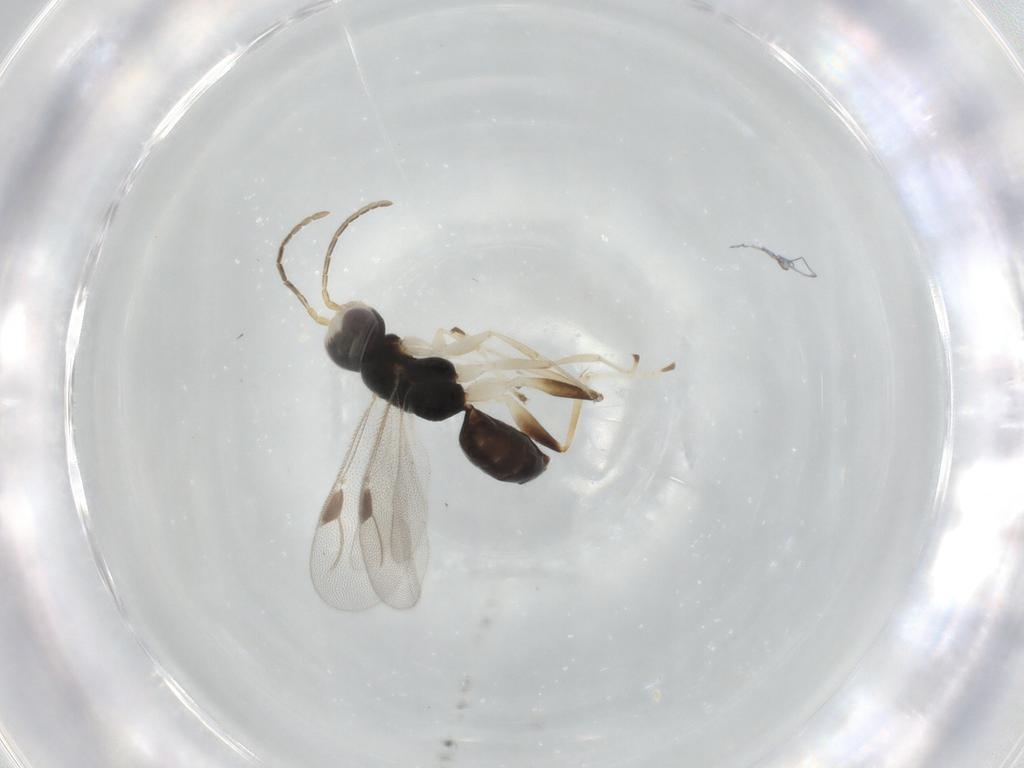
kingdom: Animalia
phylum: Arthropoda
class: Insecta
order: Hymenoptera
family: Dryinidae
